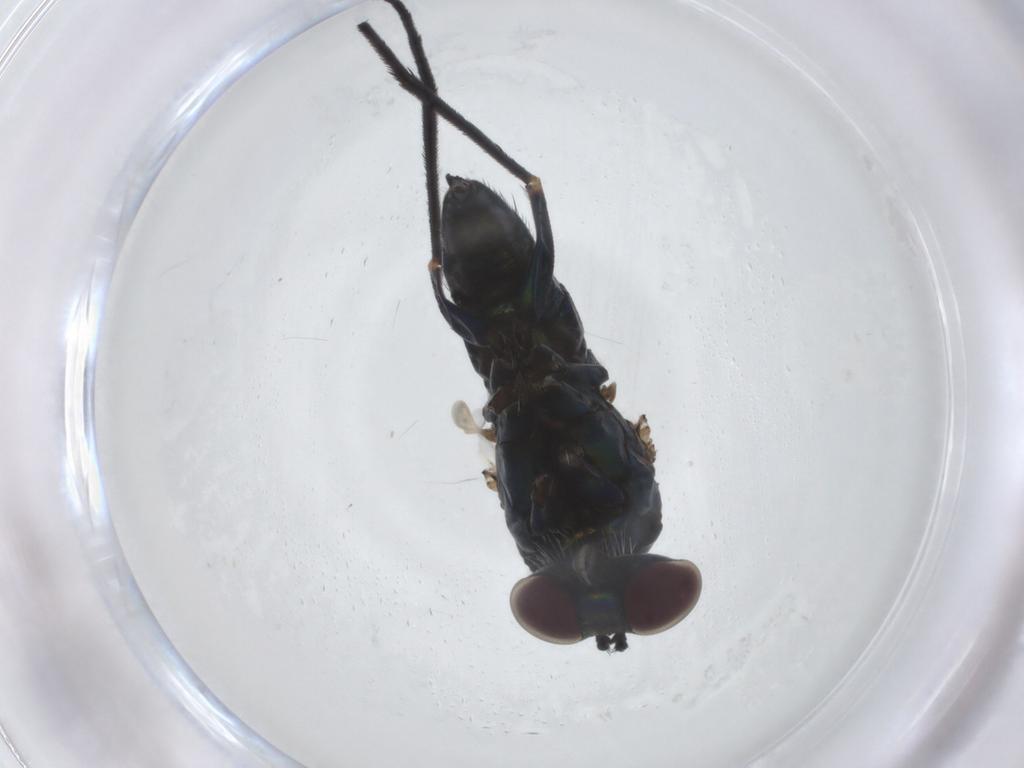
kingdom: Animalia
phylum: Arthropoda
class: Insecta
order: Diptera
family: Dolichopodidae
